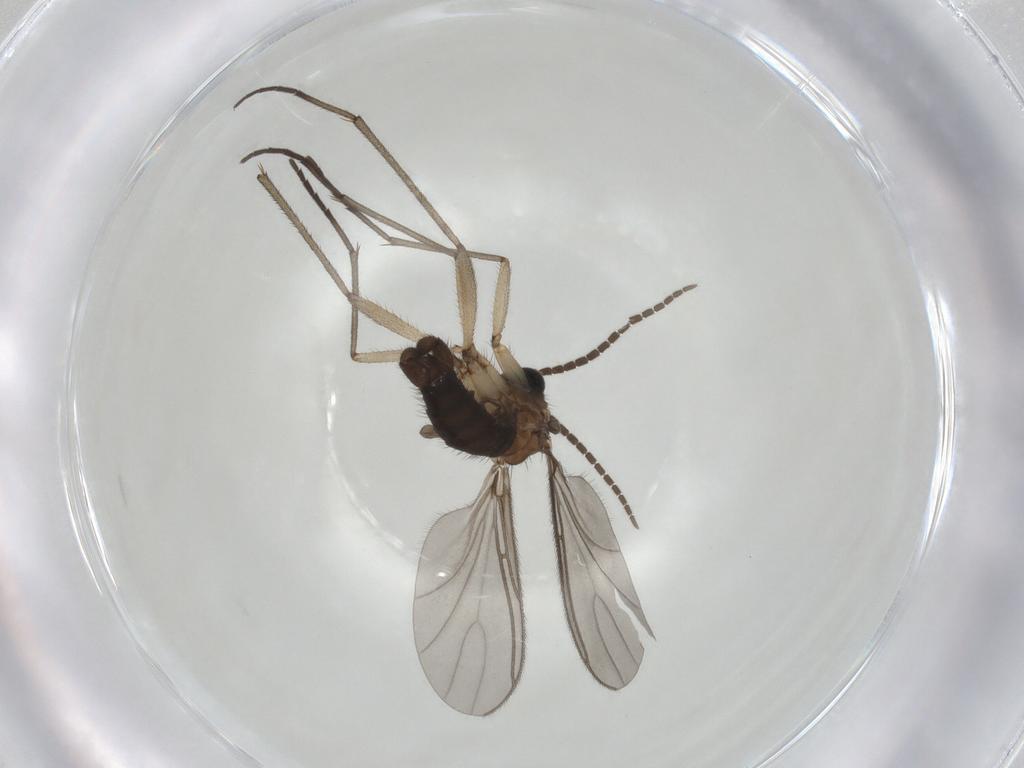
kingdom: Animalia
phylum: Arthropoda
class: Insecta
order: Diptera
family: Sciaridae
